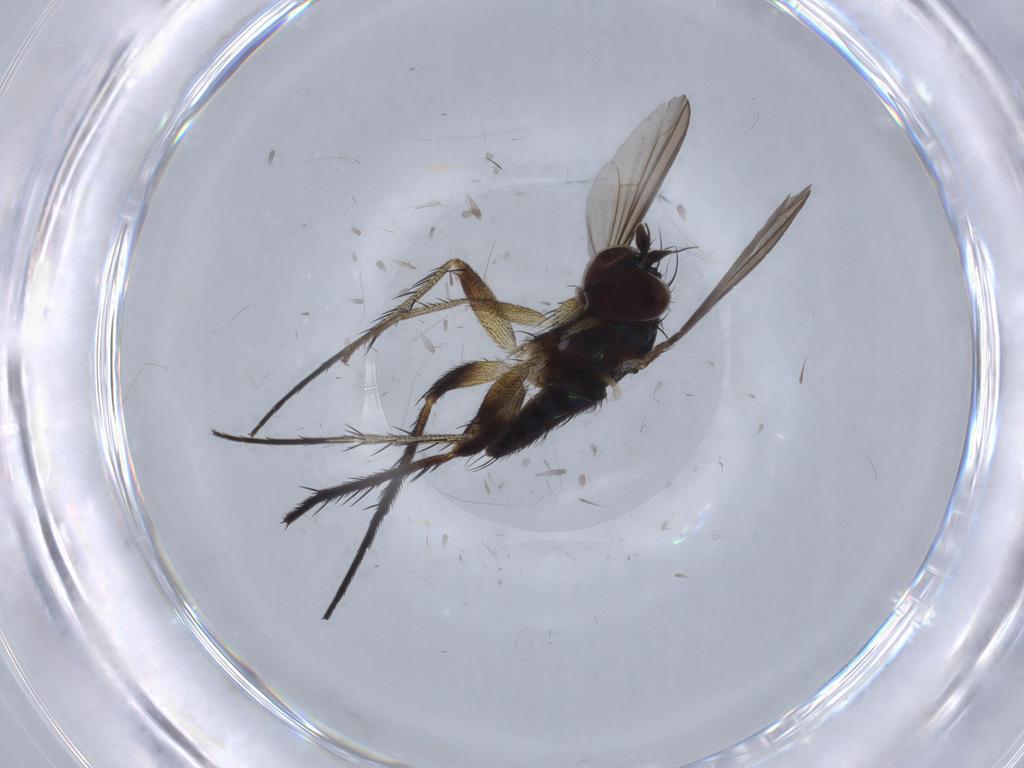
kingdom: Animalia
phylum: Arthropoda
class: Insecta
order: Diptera
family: Dolichopodidae
